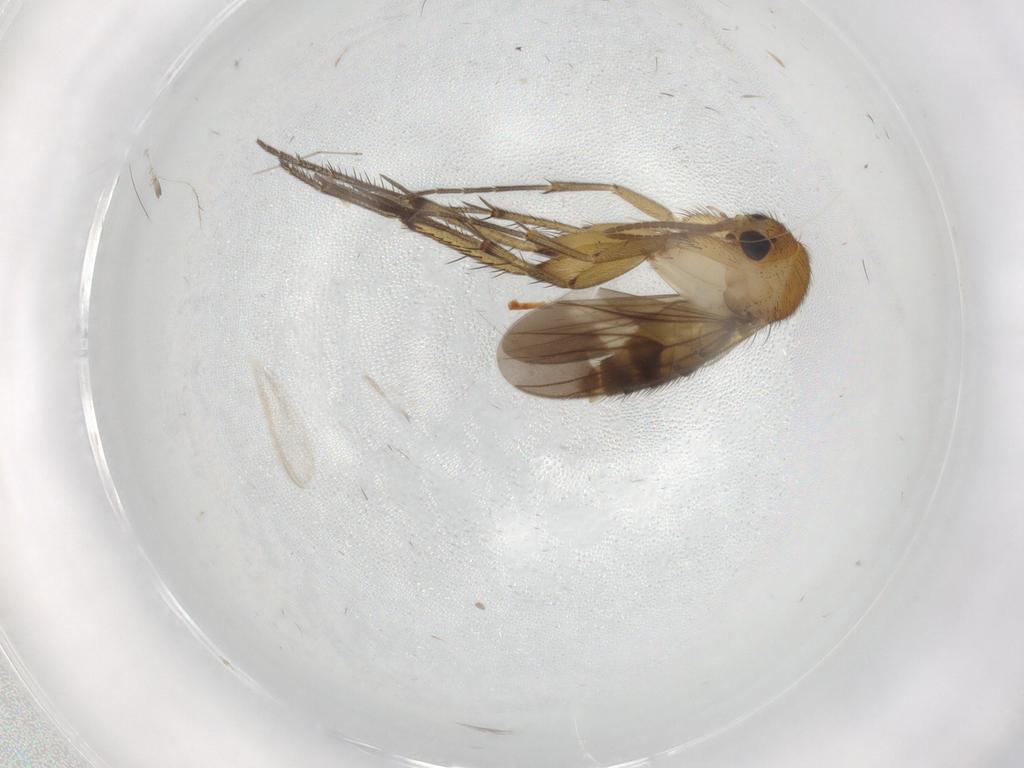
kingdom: Animalia
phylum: Arthropoda
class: Insecta
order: Diptera
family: Mycetophilidae
